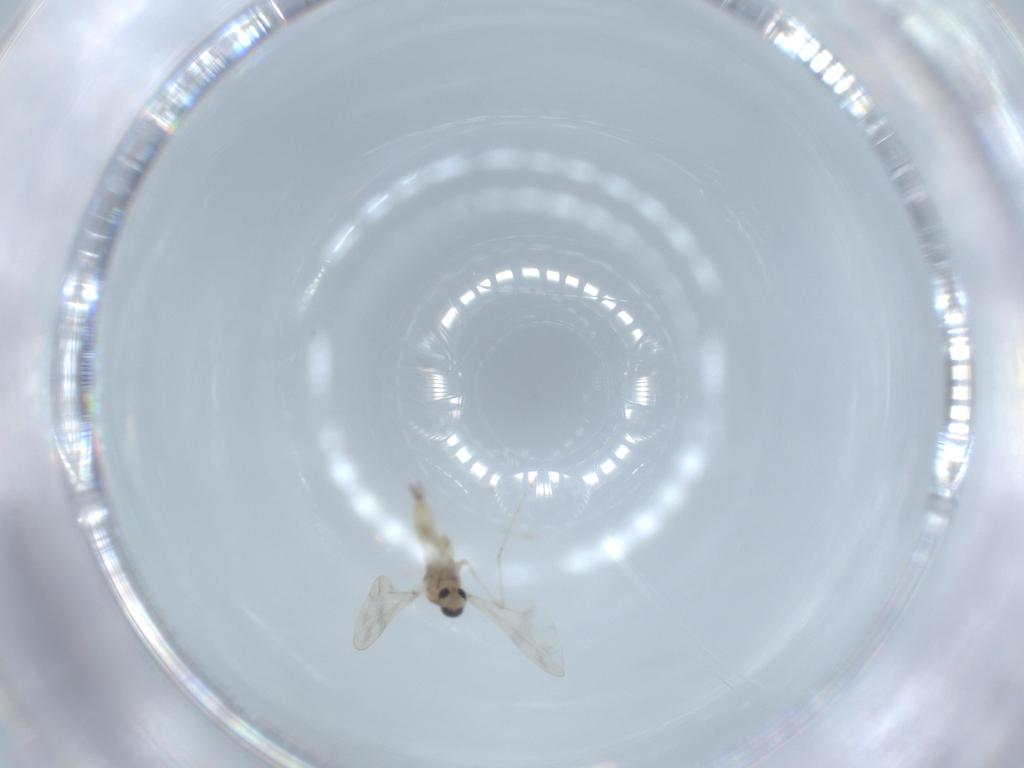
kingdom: Animalia
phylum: Arthropoda
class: Insecta
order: Diptera
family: Cecidomyiidae
